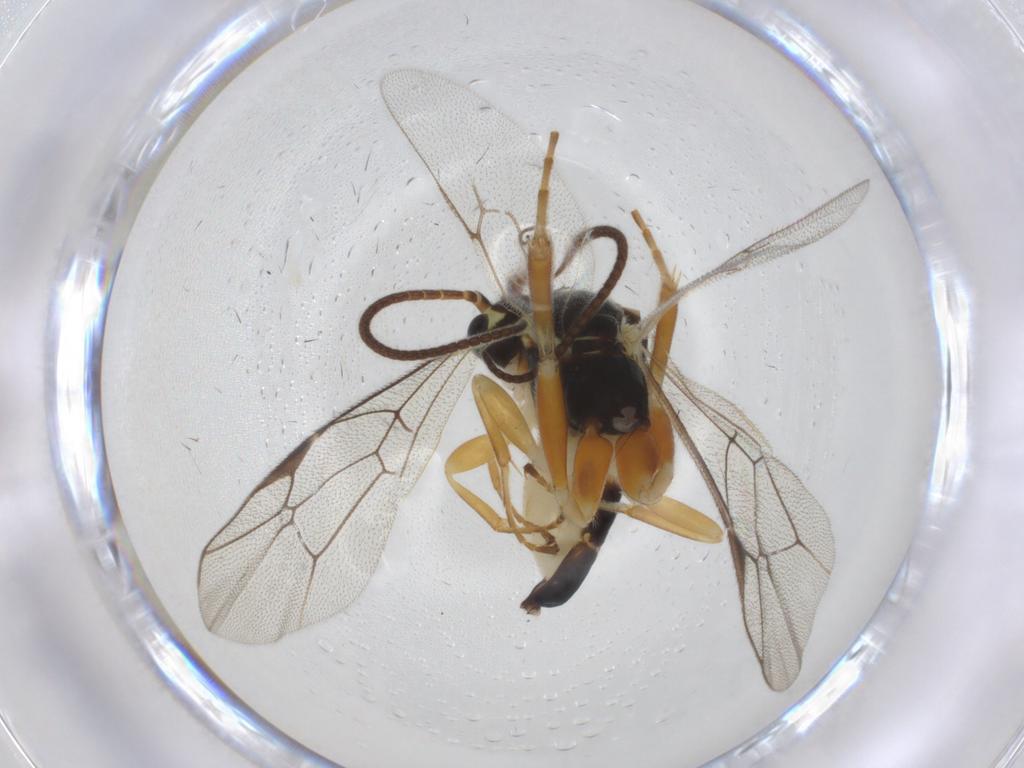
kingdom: Animalia
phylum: Arthropoda
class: Insecta
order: Hymenoptera
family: Ichneumonidae
